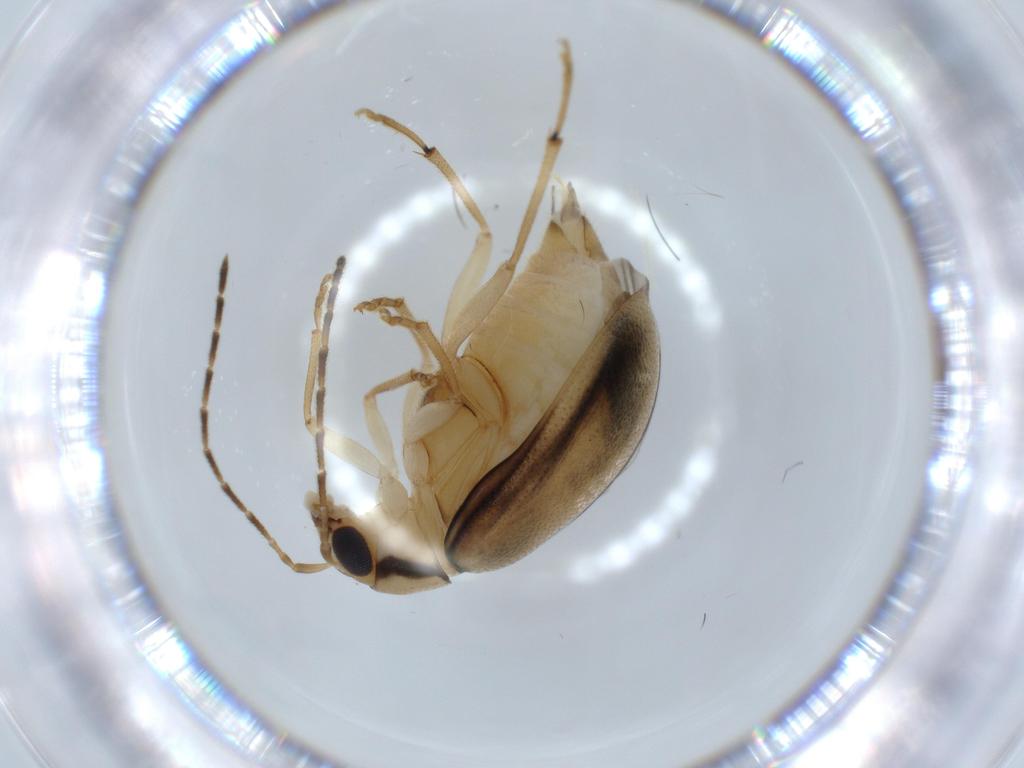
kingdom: Animalia
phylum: Arthropoda
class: Insecta
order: Coleoptera
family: Chrysomelidae
